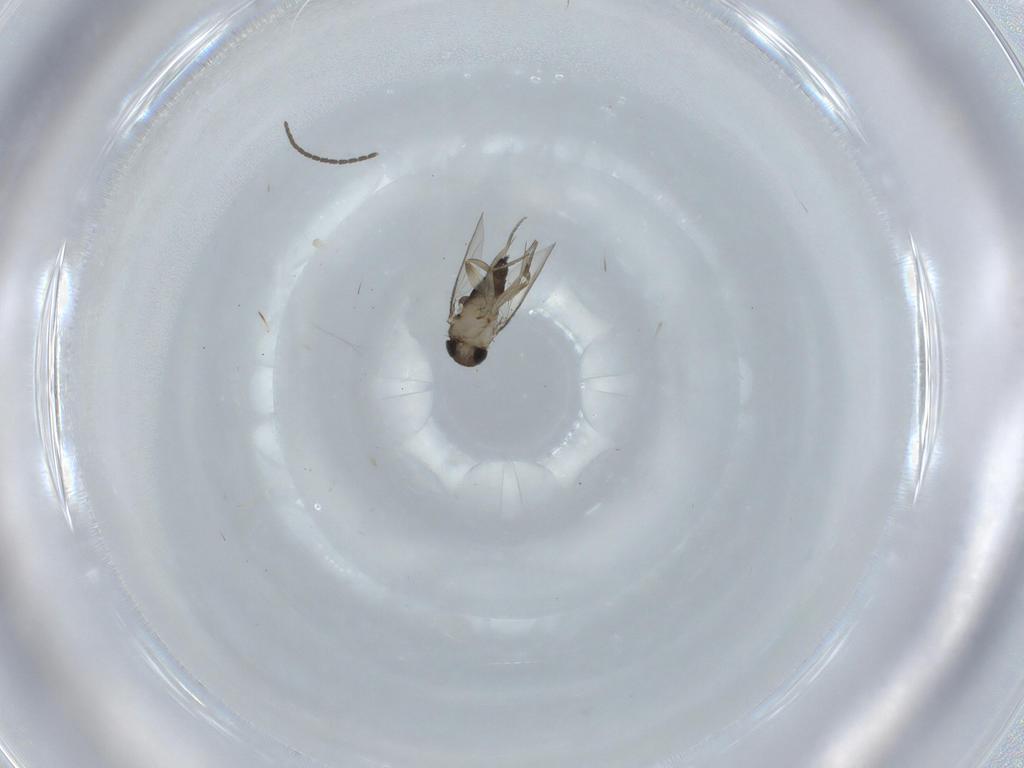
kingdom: Animalia
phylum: Arthropoda
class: Insecta
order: Diptera
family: Phoridae
